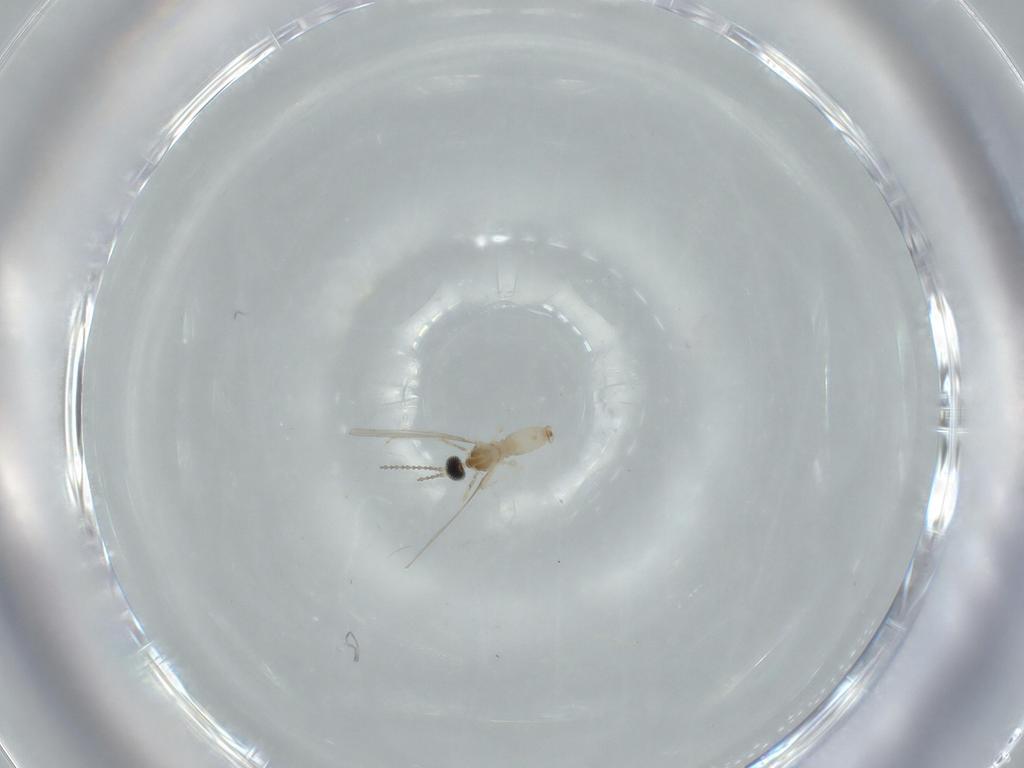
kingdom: Animalia
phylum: Arthropoda
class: Insecta
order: Diptera
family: Cecidomyiidae
